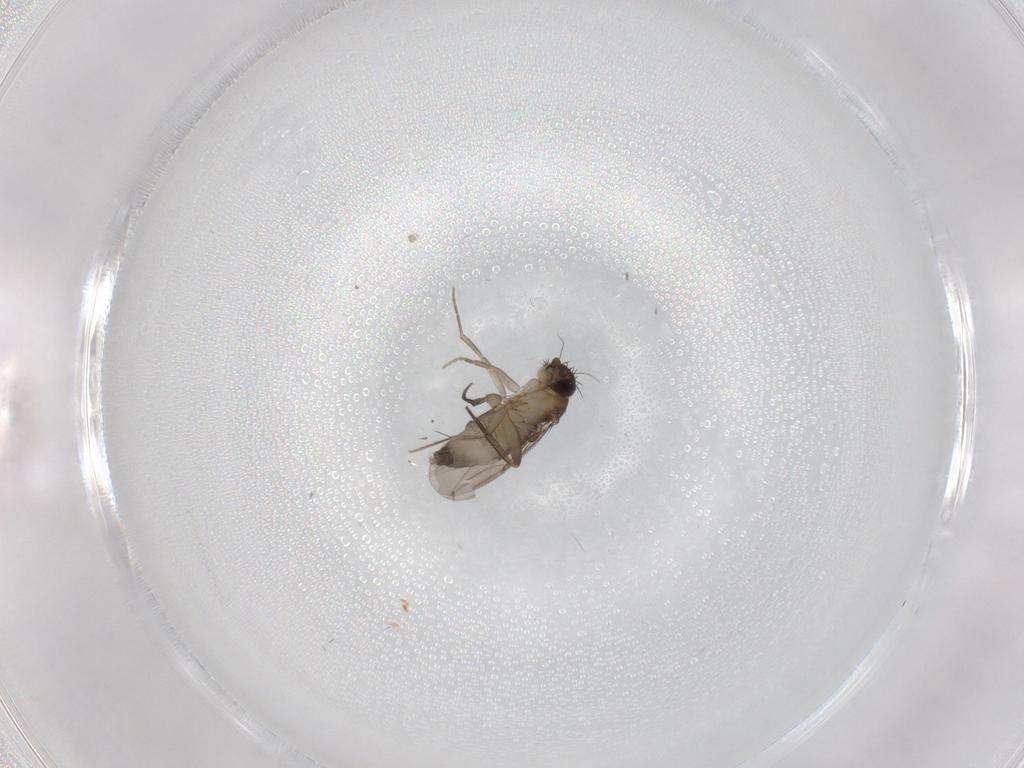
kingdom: Animalia
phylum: Arthropoda
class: Insecta
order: Diptera
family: Phoridae
